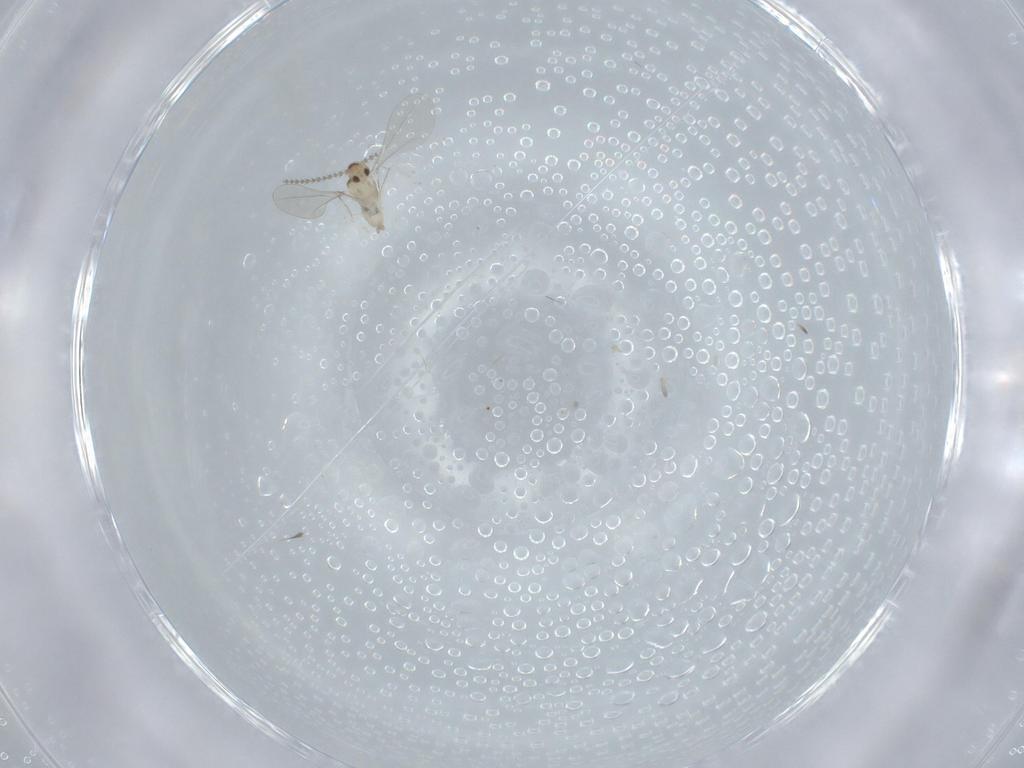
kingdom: Animalia
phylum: Arthropoda
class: Insecta
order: Diptera
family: Cecidomyiidae
